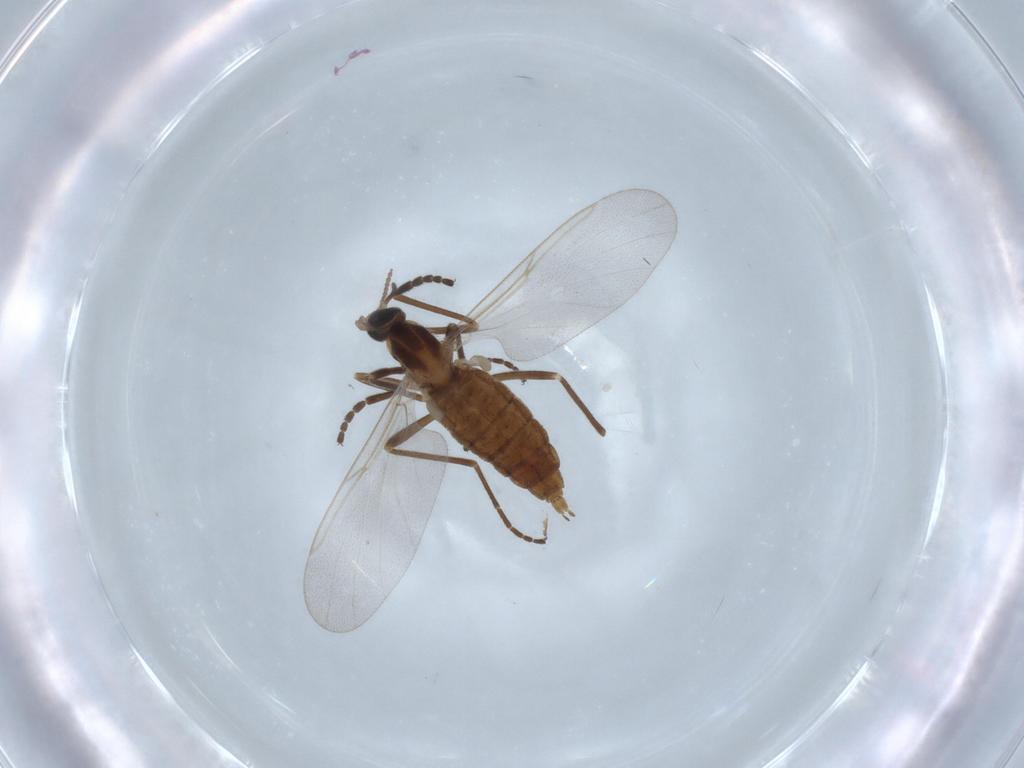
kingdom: Animalia
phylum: Arthropoda
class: Insecta
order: Diptera
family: Cecidomyiidae
